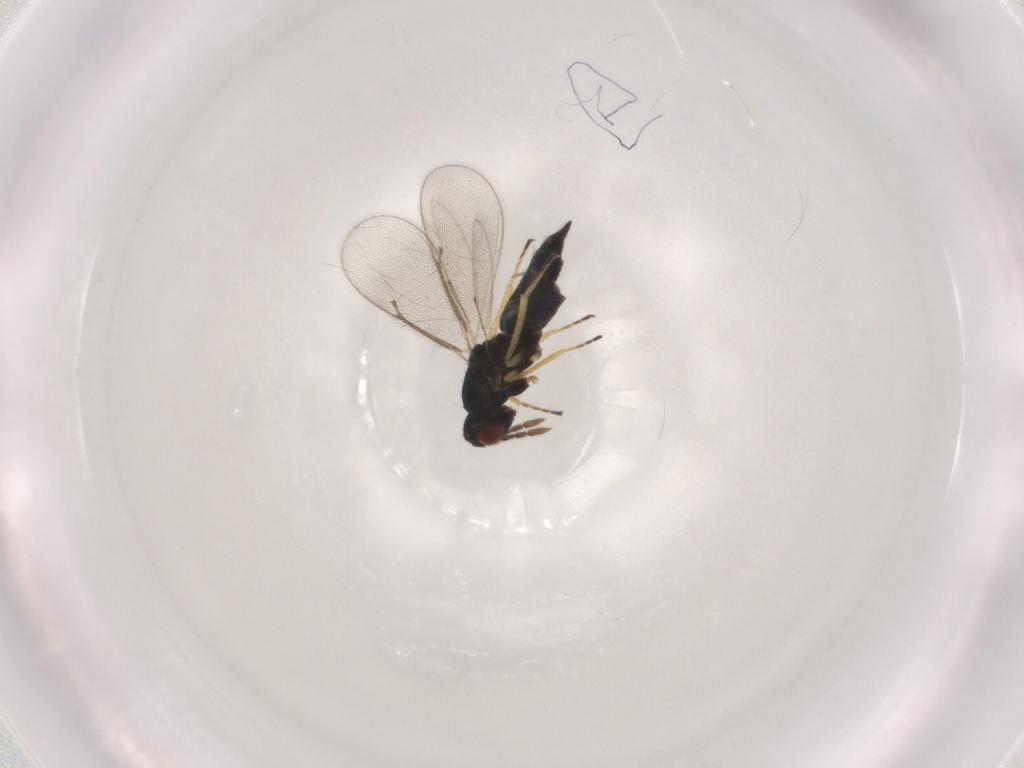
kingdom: Animalia
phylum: Arthropoda
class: Insecta
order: Hymenoptera
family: Eulophidae
